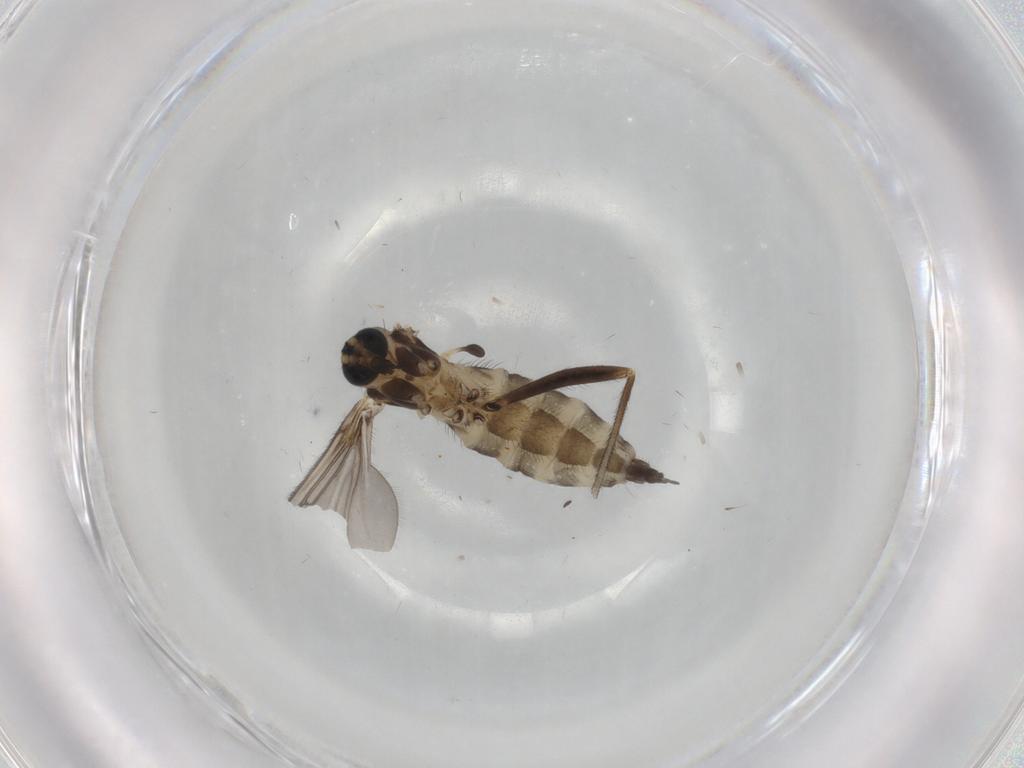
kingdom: Animalia
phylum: Arthropoda
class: Insecta
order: Diptera
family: Sciaridae
